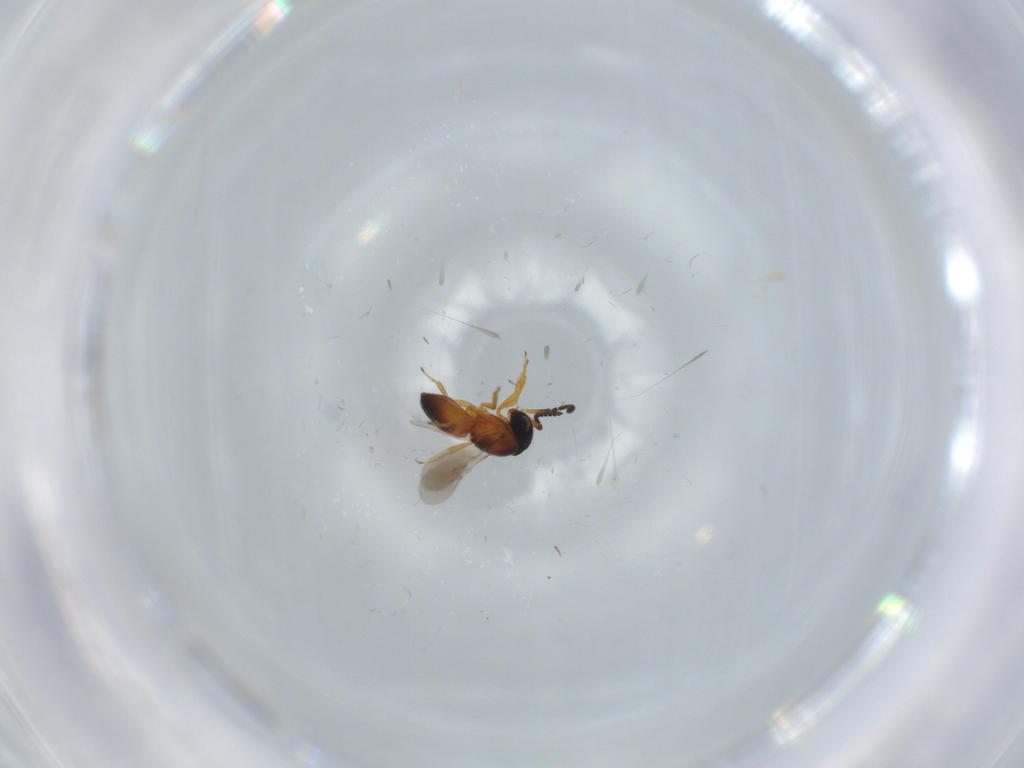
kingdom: Animalia
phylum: Arthropoda
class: Insecta
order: Hymenoptera
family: Scelionidae
